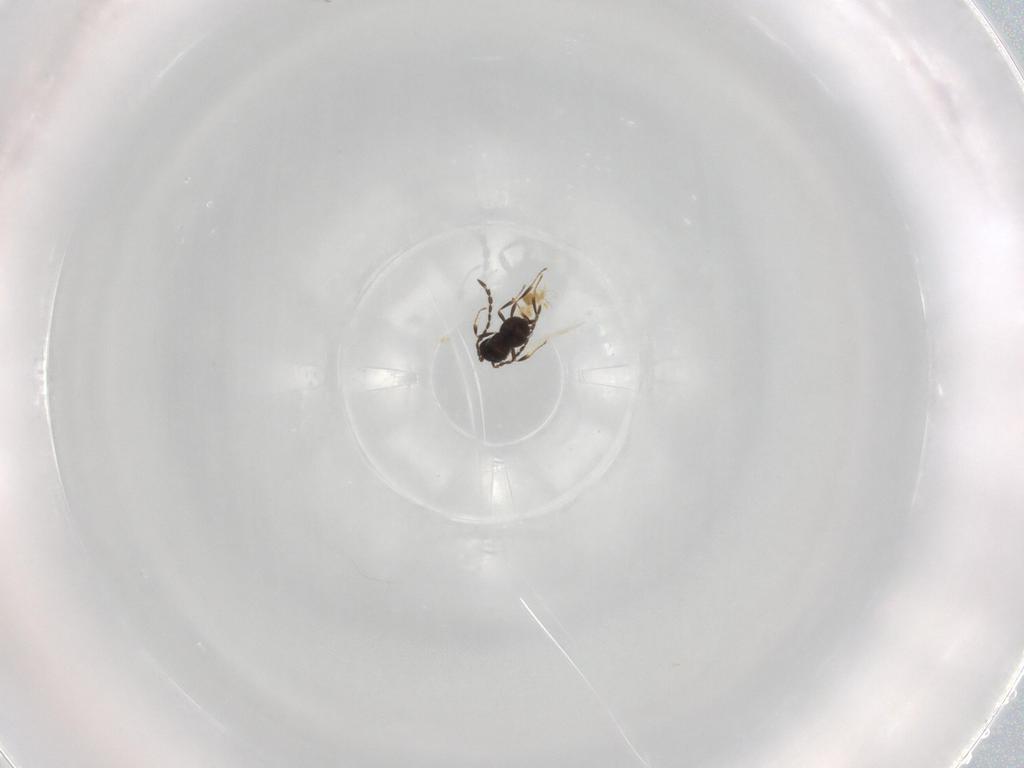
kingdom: Animalia
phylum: Arthropoda
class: Insecta
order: Hymenoptera
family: Scelionidae
